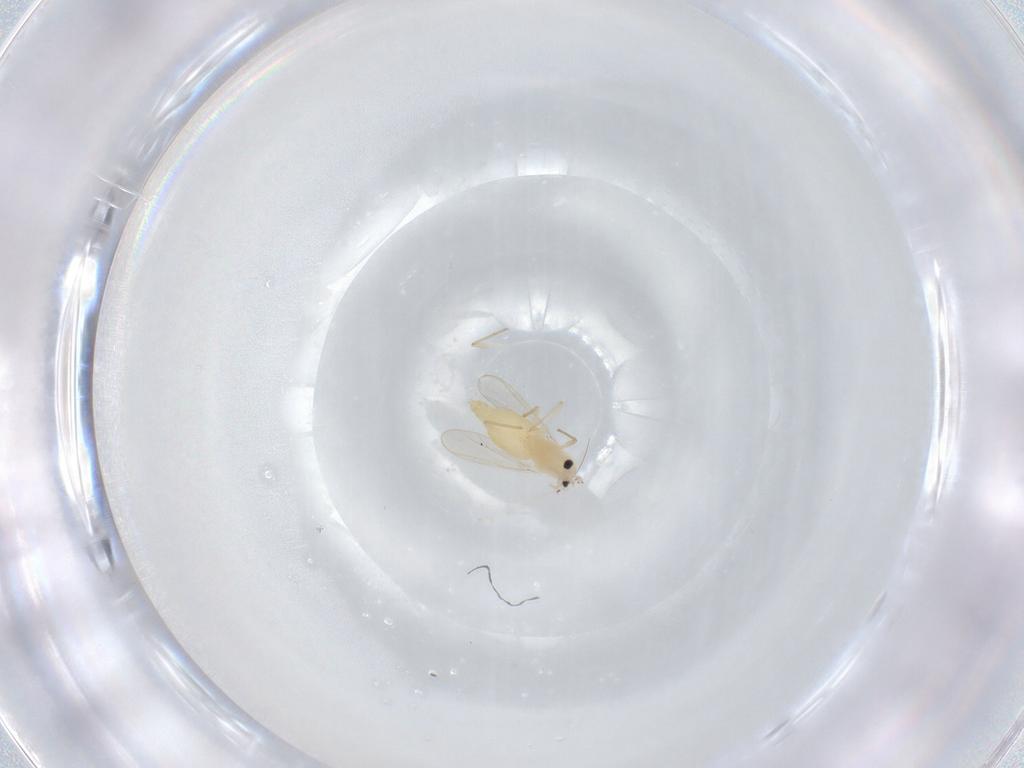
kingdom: Animalia
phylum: Arthropoda
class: Insecta
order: Diptera
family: Chironomidae
